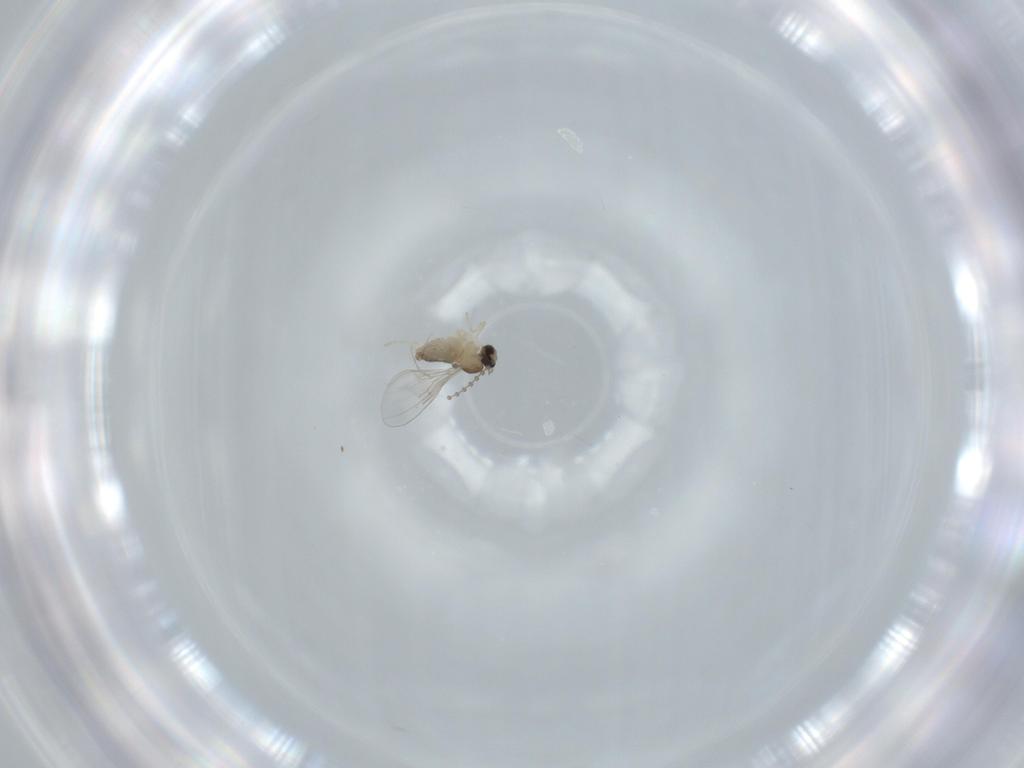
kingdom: Animalia
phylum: Arthropoda
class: Insecta
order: Diptera
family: Cecidomyiidae
